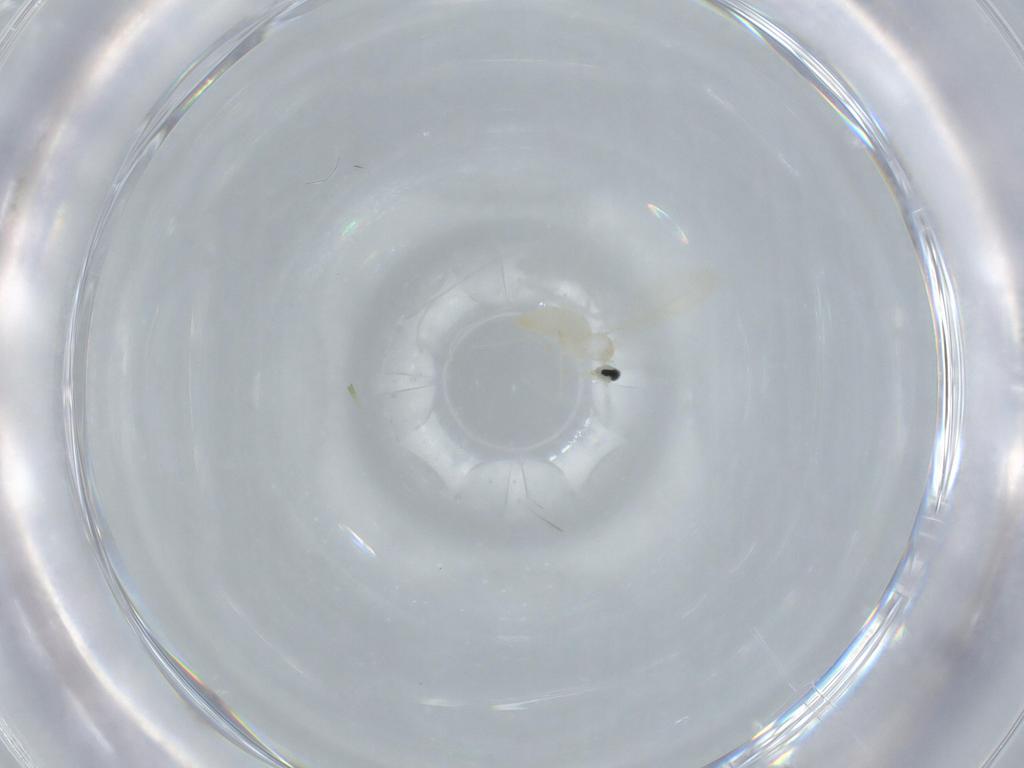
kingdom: Animalia
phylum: Arthropoda
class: Insecta
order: Diptera
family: Cecidomyiidae
